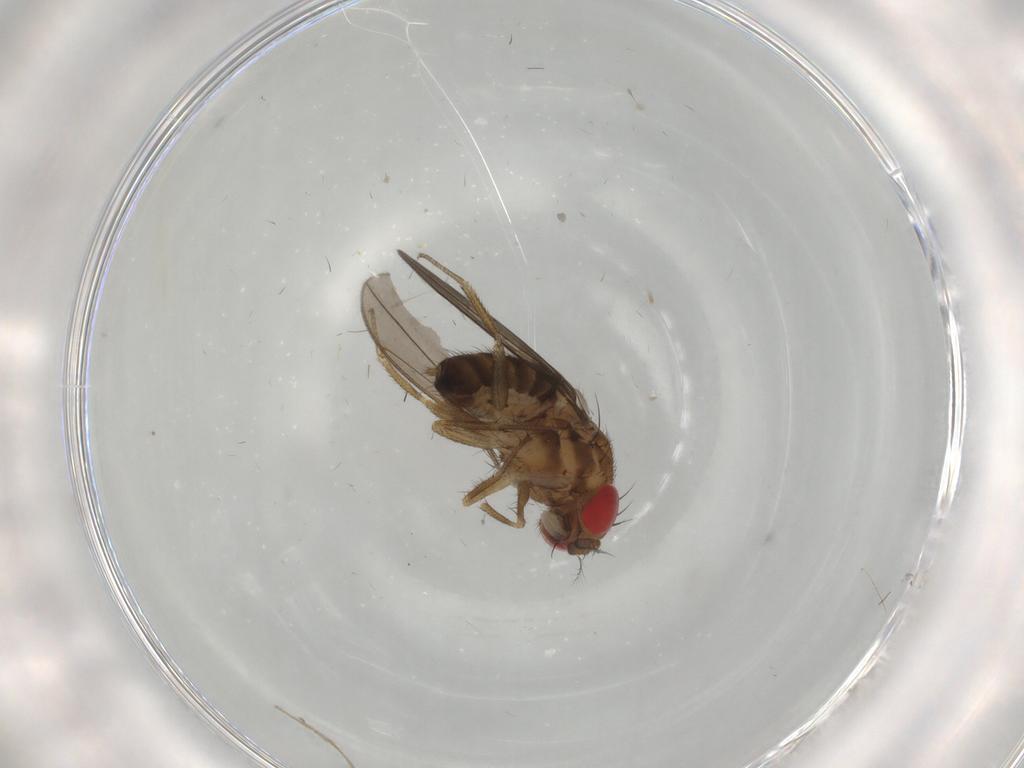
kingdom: Animalia
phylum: Arthropoda
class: Insecta
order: Diptera
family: Drosophilidae
